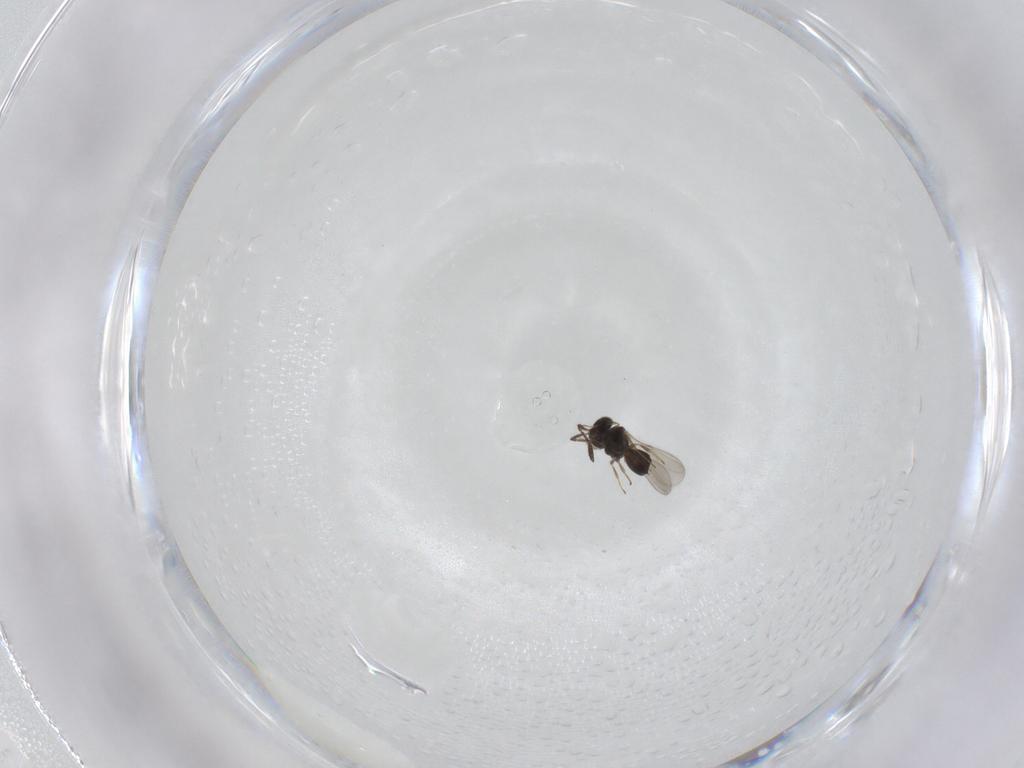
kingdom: Animalia
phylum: Arthropoda
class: Insecta
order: Hymenoptera
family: Scelionidae
